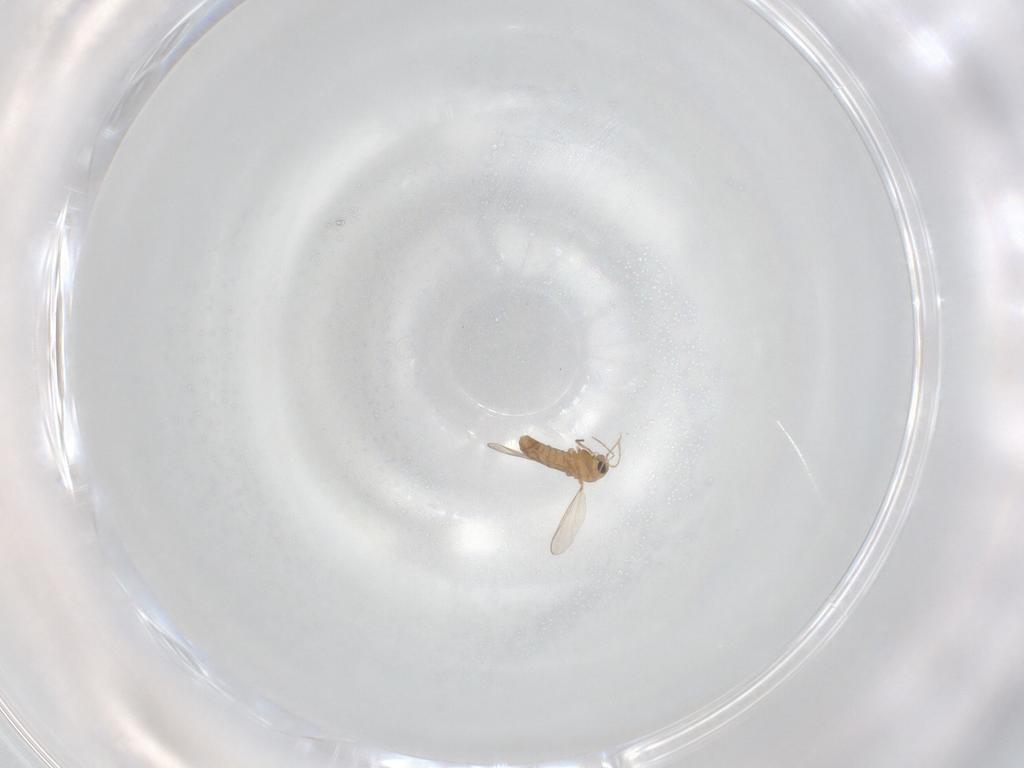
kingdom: Animalia
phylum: Arthropoda
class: Insecta
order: Diptera
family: Chironomidae
